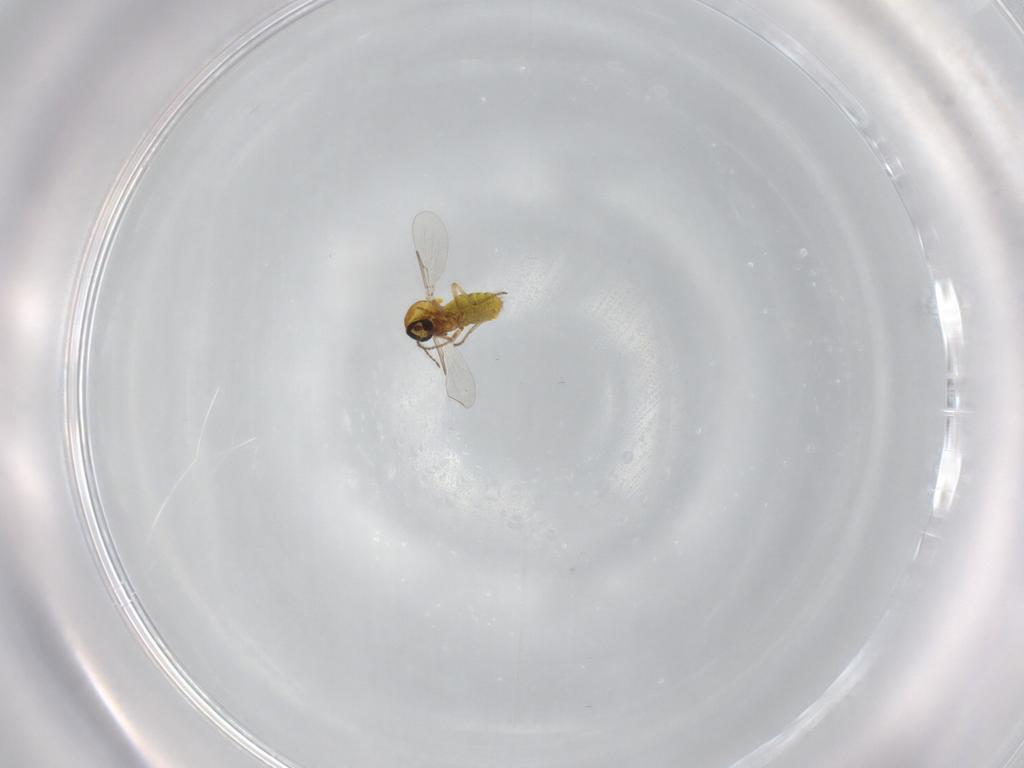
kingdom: Animalia
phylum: Arthropoda
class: Insecta
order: Diptera
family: Ceratopogonidae
